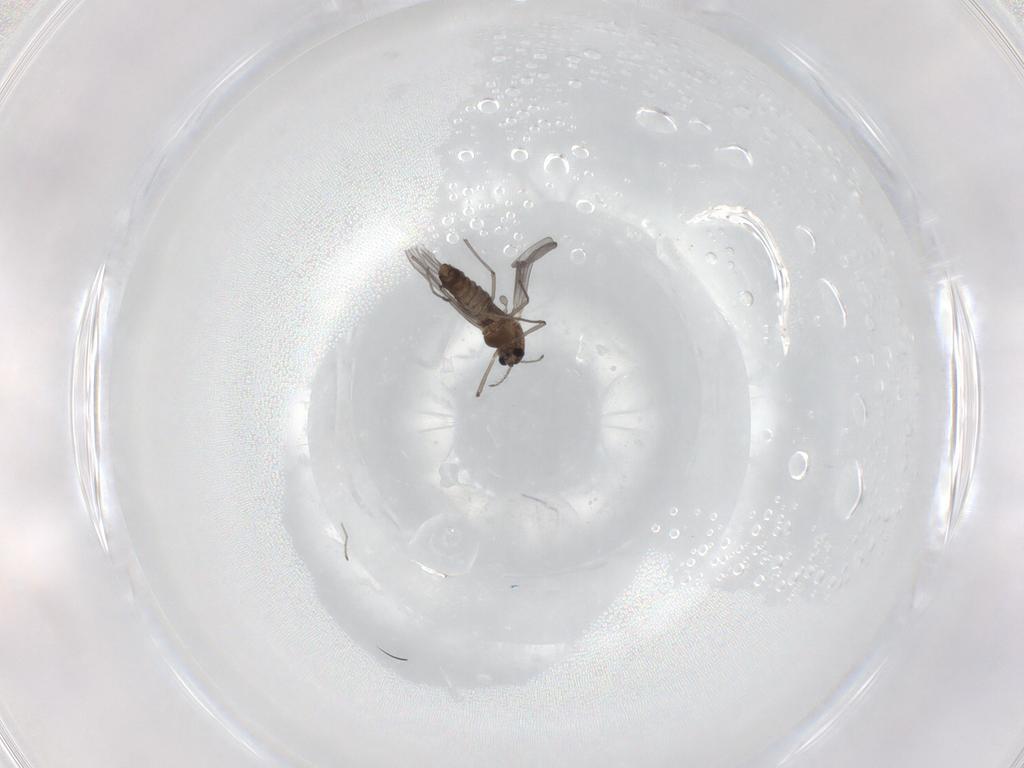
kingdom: Animalia
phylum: Arthropoda
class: Insecta
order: Diptera
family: Chironomidae
